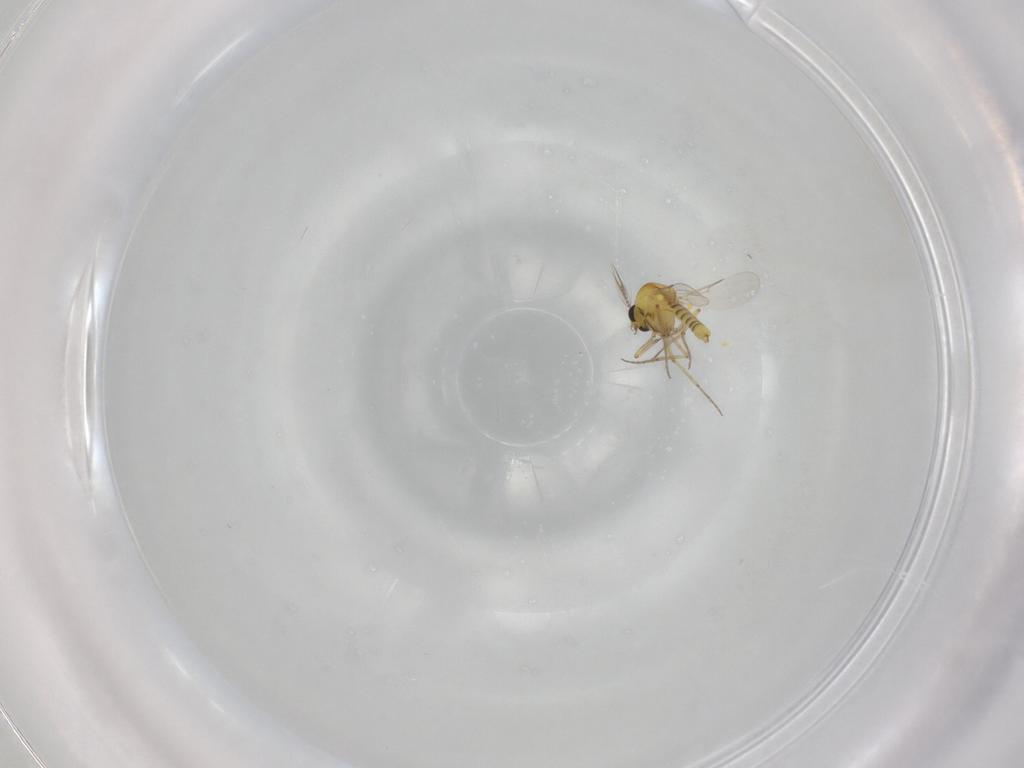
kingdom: Animalia
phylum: Arthropoda
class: Insecta
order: Diptera
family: Ceratopogonidae
